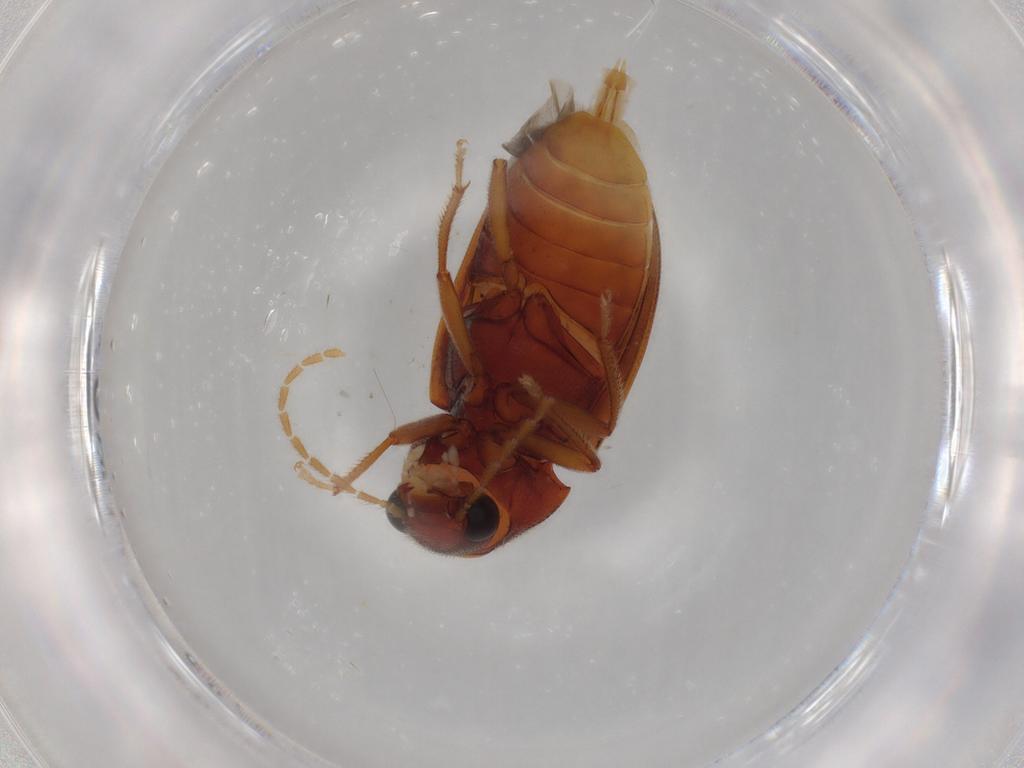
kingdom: Animalia
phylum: Arthropoda
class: Insecta
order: Coleoptera
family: Ptilodactylidae
